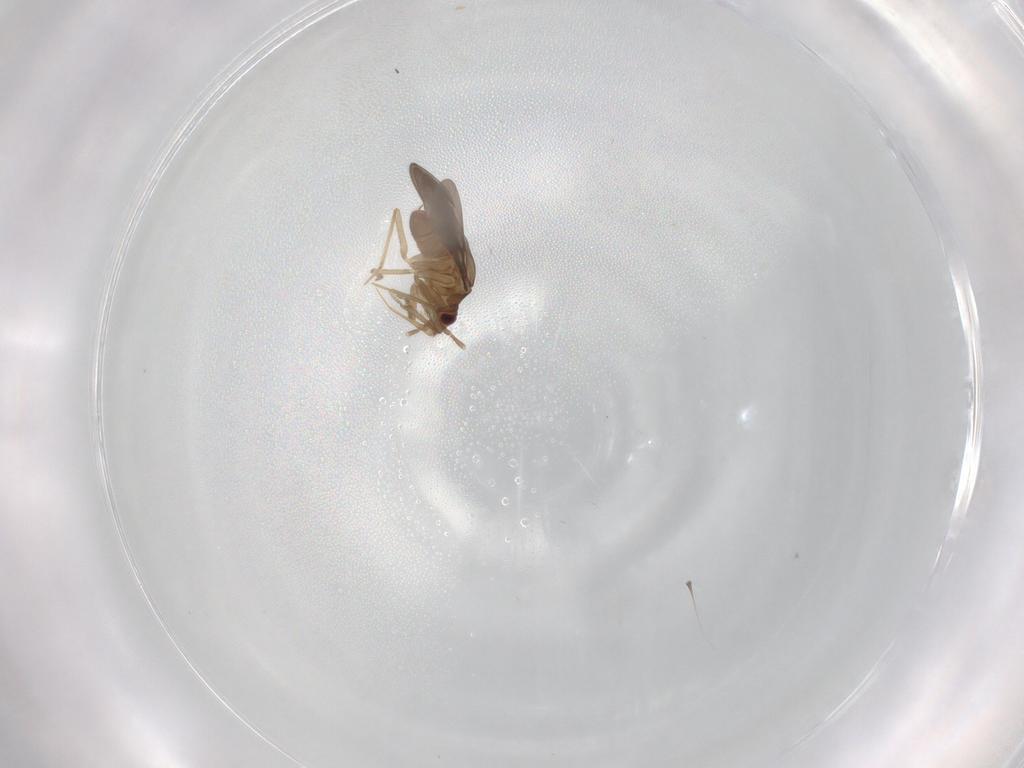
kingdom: Animalia
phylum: Arthropoda
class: Insecta
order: Hemiptera
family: Ceratocombidae
